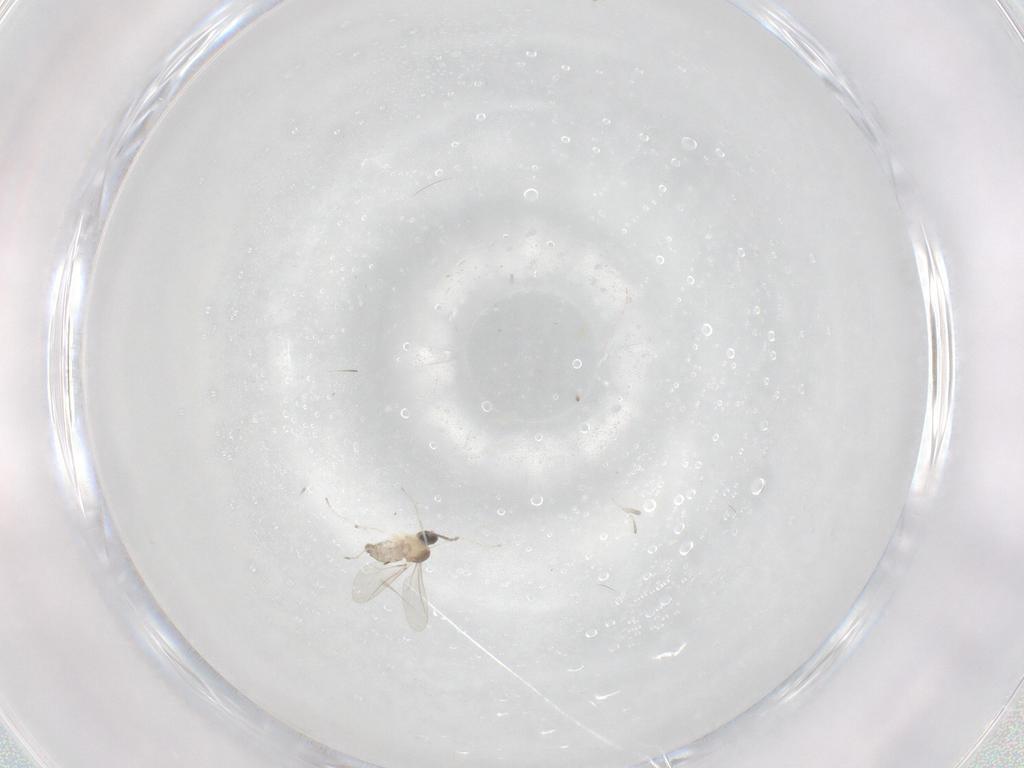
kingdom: Animalia
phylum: Arthropoda
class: Insecta
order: Diptera
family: Cecidomyiidae
